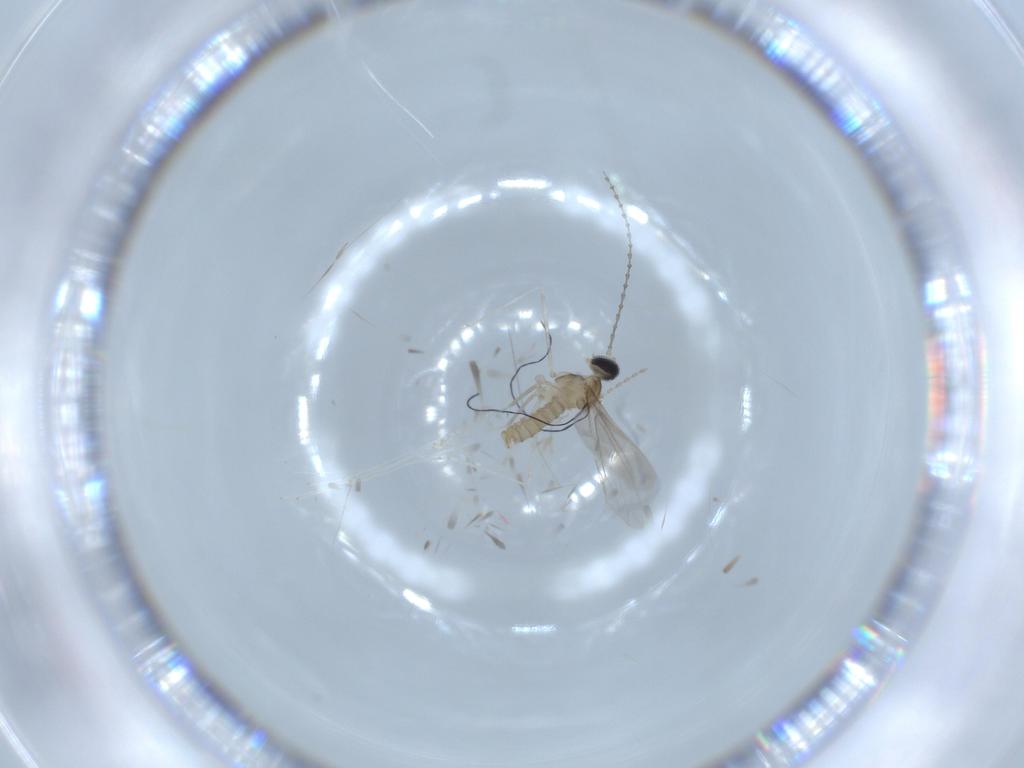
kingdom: Animalia
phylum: Arthropoda
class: Insecta
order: Diptera
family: Cecidomyiidae
